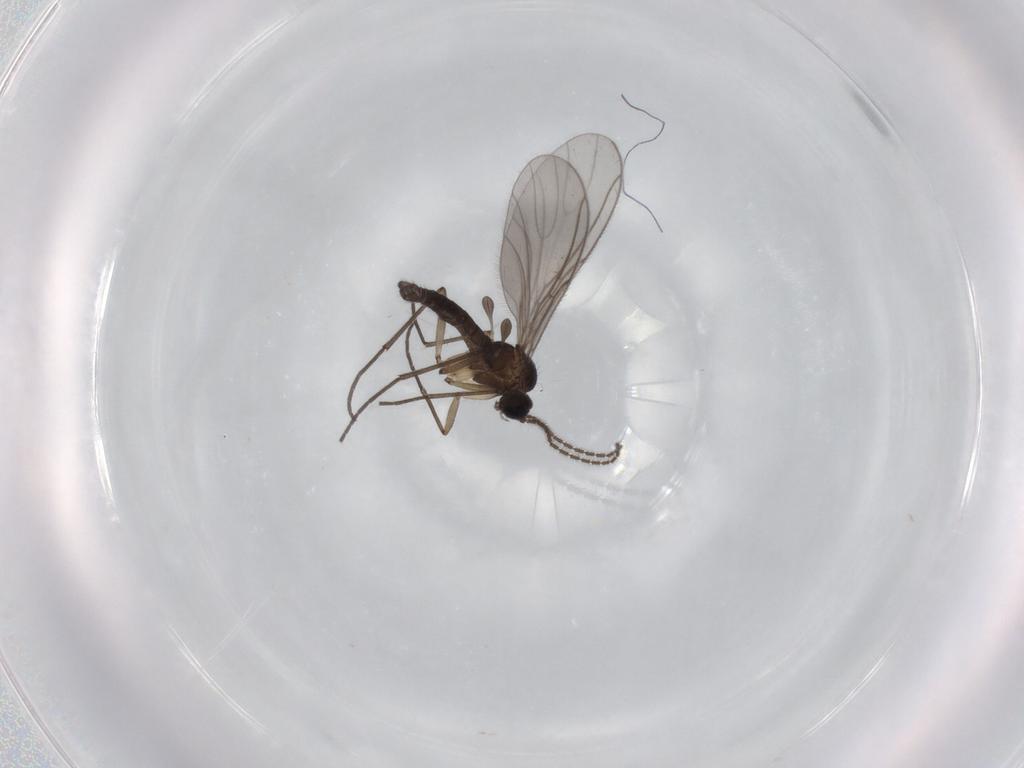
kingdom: Animalia
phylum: Arthropoda
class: Insecta
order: Diptera
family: Sciaridae
